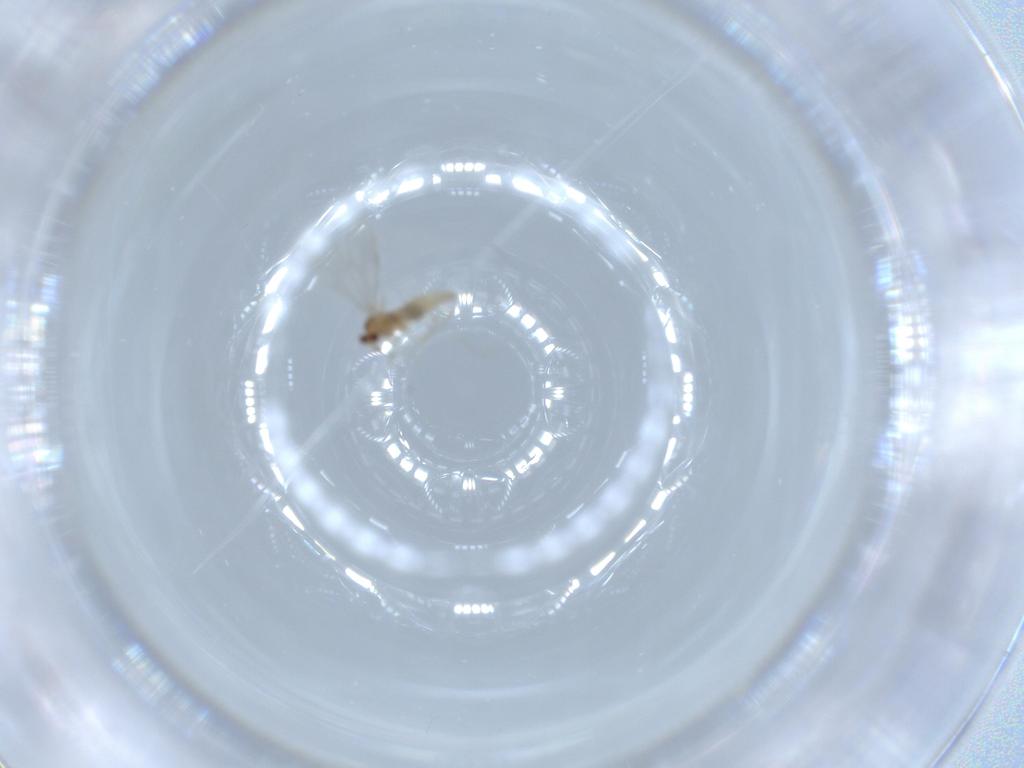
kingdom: Animalia
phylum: Arthropoda
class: Insecta
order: Diptera
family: Cecidomyiidae
